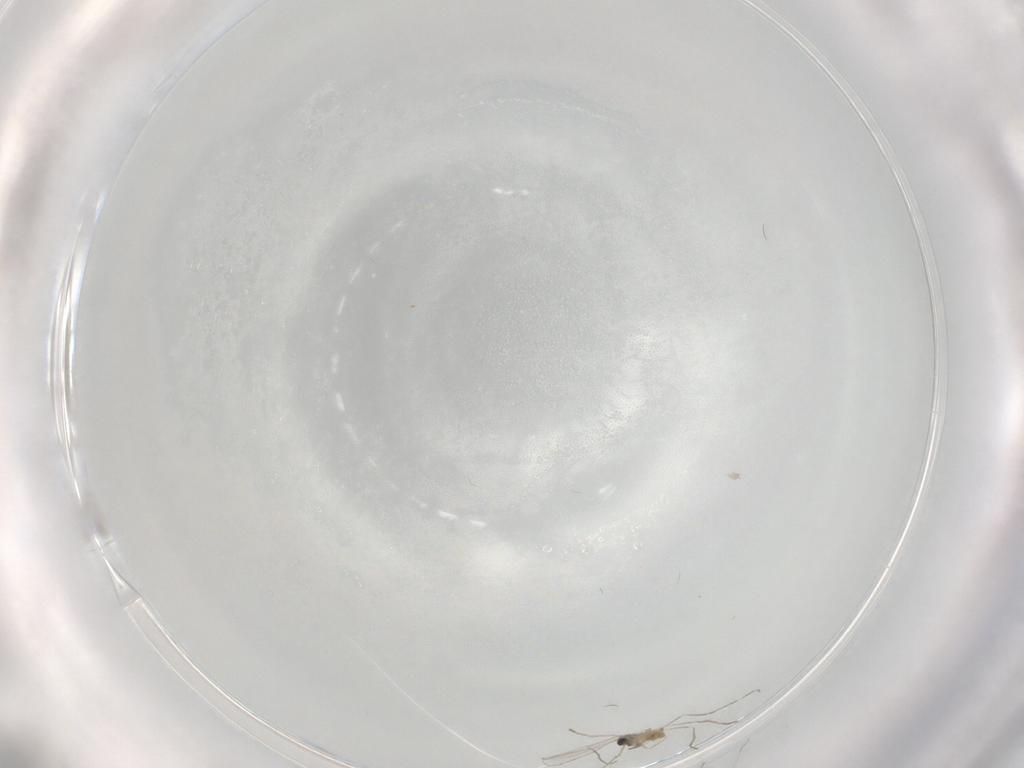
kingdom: Animalia
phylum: Arthropoda
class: Insecta
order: Diptera
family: Cecidomyiidae
